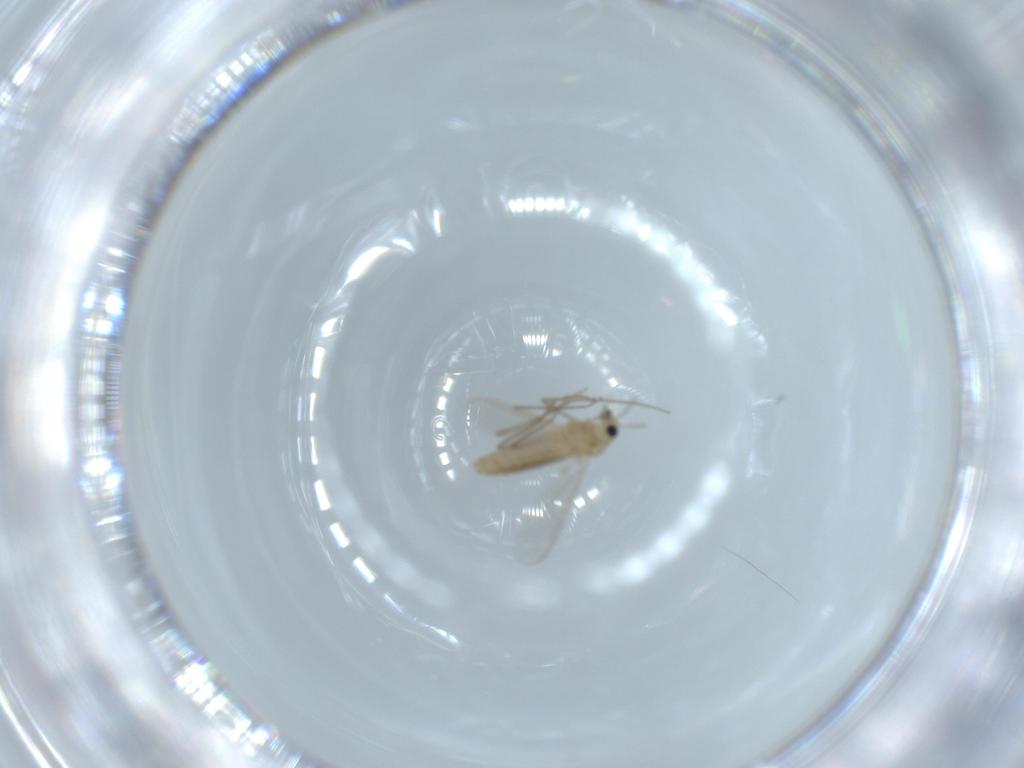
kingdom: Animalia
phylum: Arthropoda
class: Insecta
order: Diptera
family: Chironomidae
